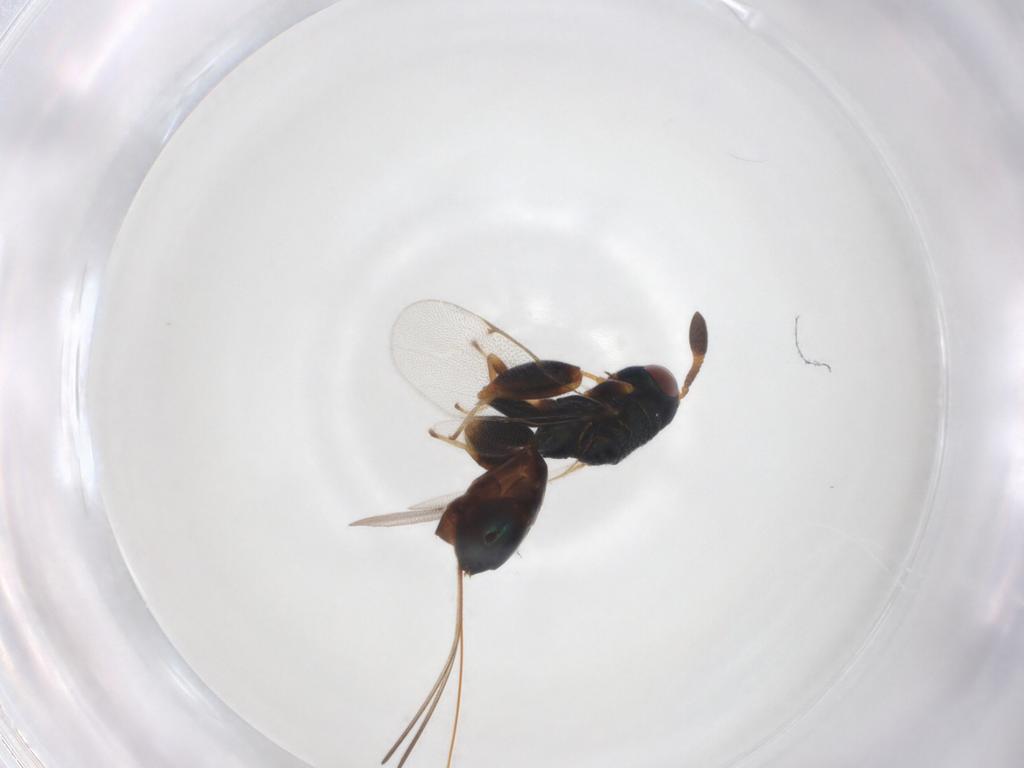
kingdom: Animalia
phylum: Arthropoda
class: Insecta
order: Hymenoptera
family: Torymidae
